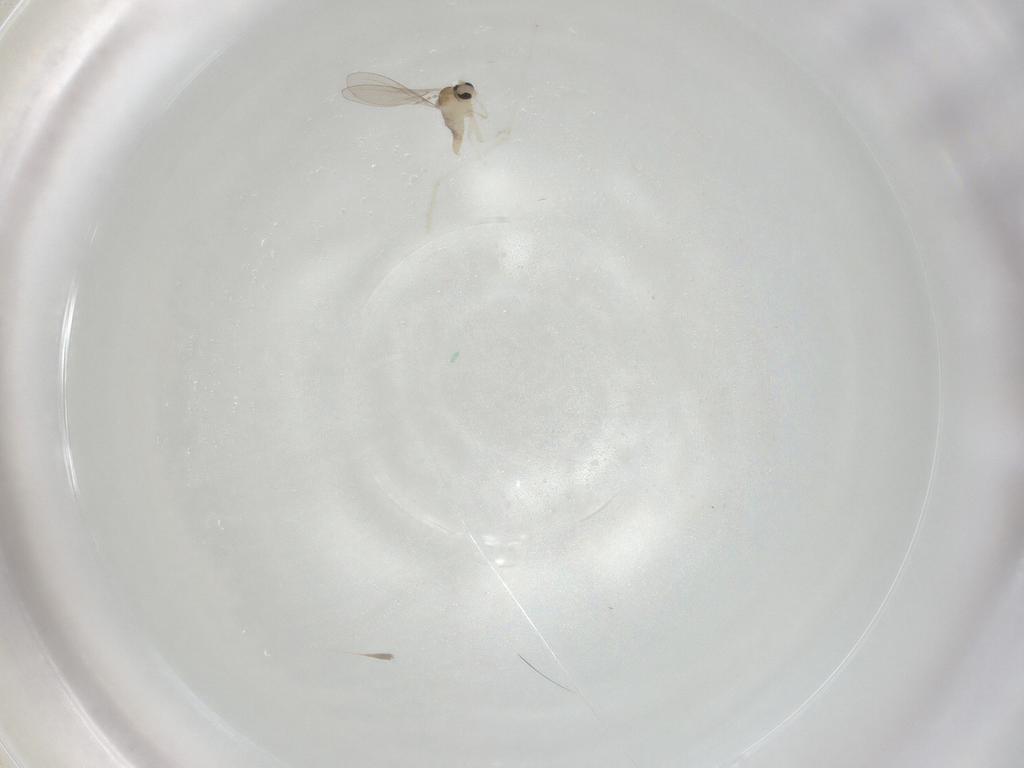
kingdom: Animalia
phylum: Arthropoda
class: Insecta
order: Diptera
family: Cecidomyiidae
